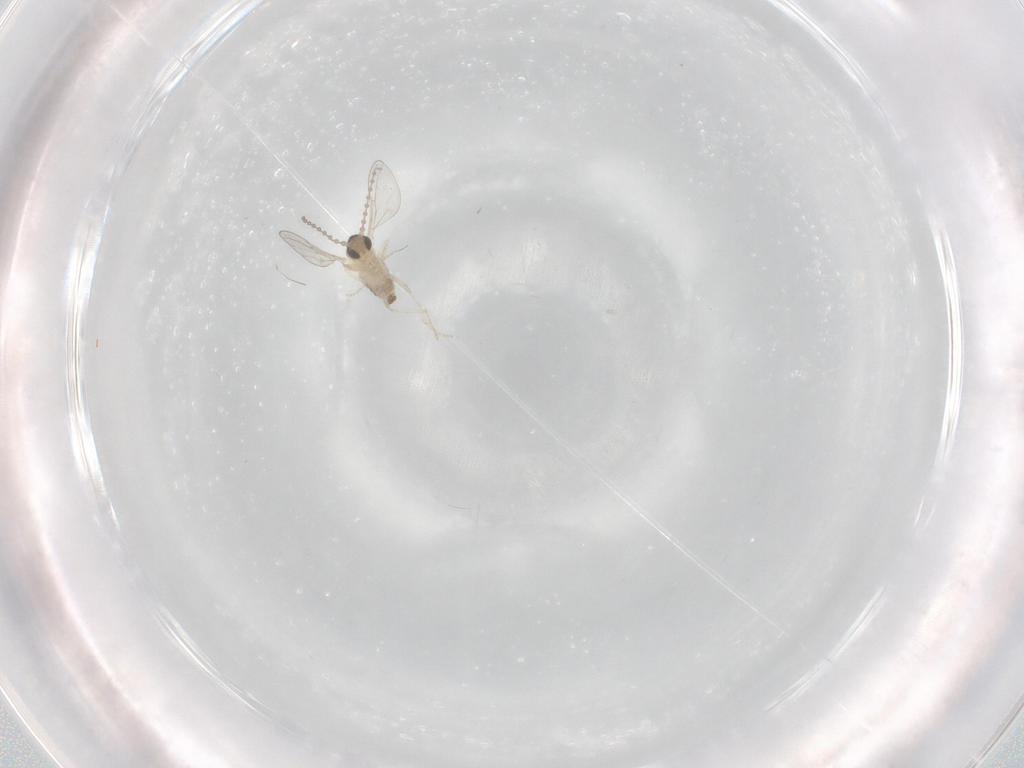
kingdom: Animalia
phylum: Arthropoda
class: Insecta
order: Diptera
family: Cecidomyiidae
